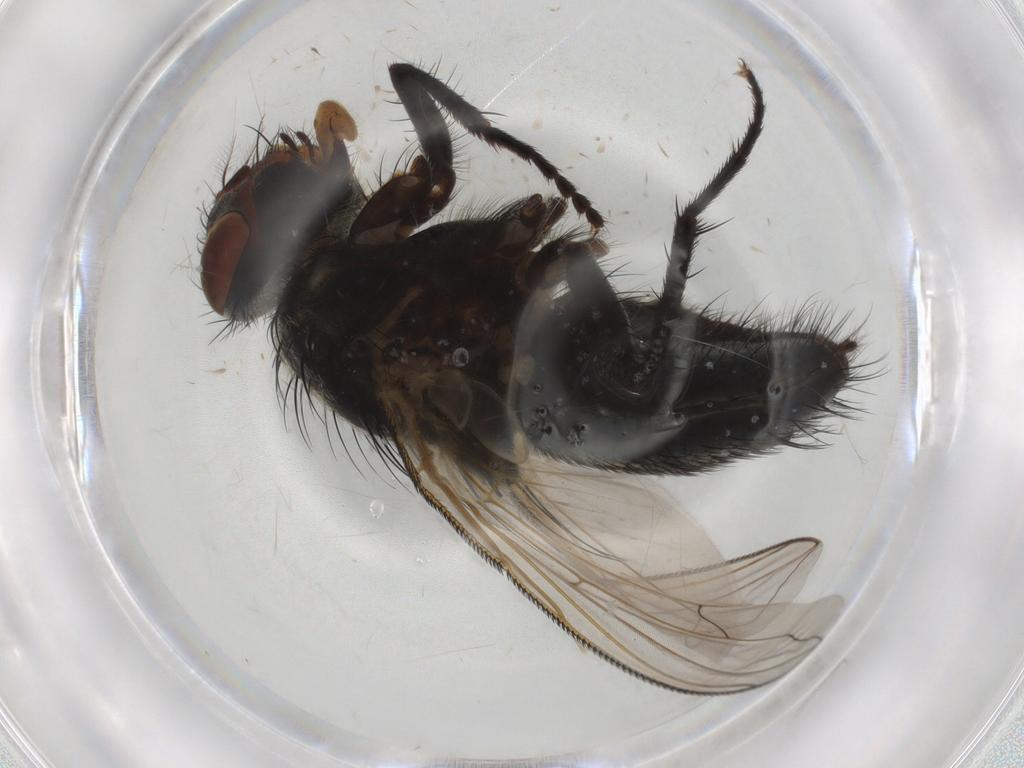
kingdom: Animalia
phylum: Arthropoda
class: Insecta
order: Diptera
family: Polleniidae
